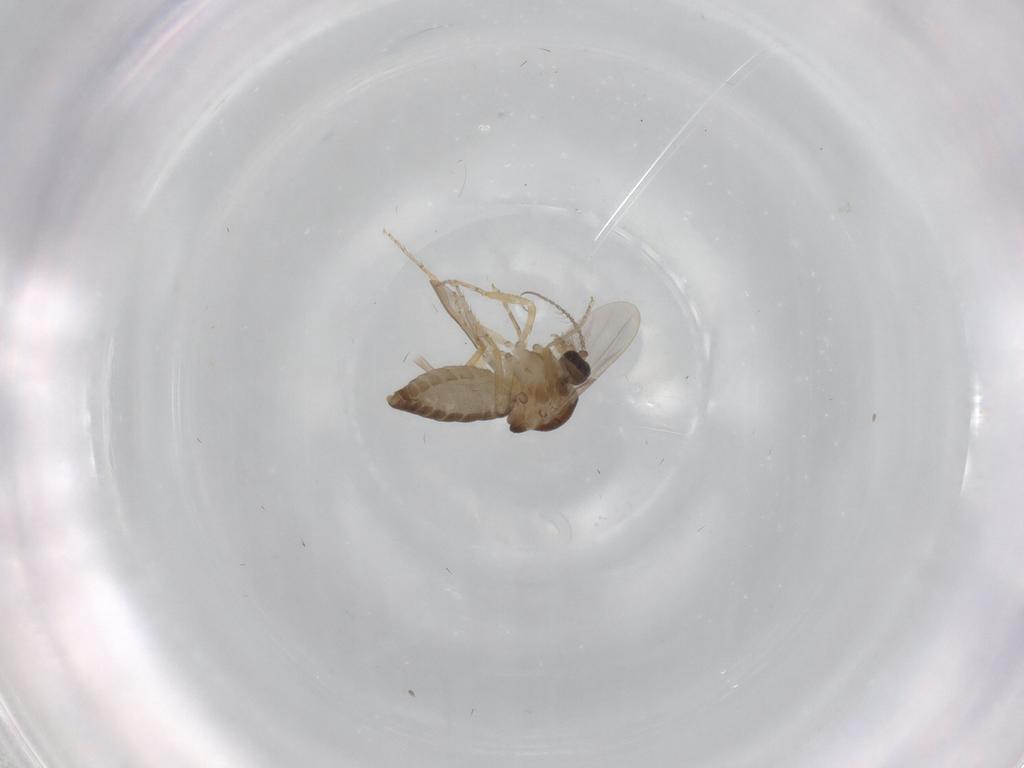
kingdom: Animalia
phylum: Arthropoda
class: Insecta
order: Diptera
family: Ceratopogonidae
